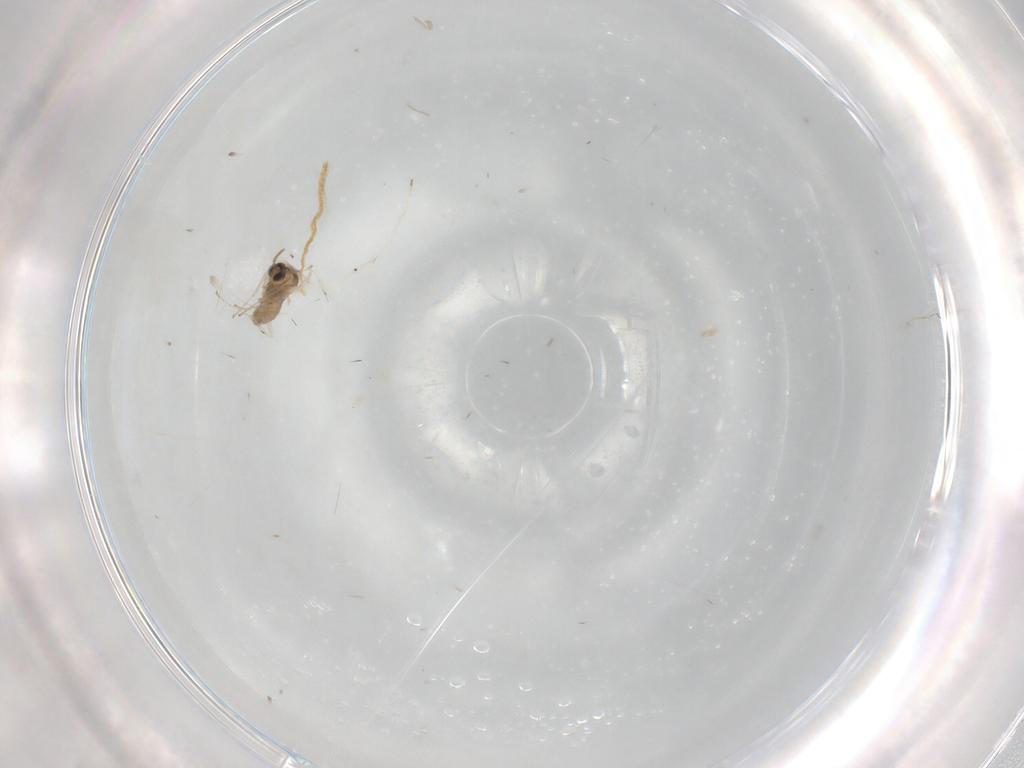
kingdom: Animalia
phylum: Arthropoda
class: Insecta
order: Diptera
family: Cecidomyiidae
